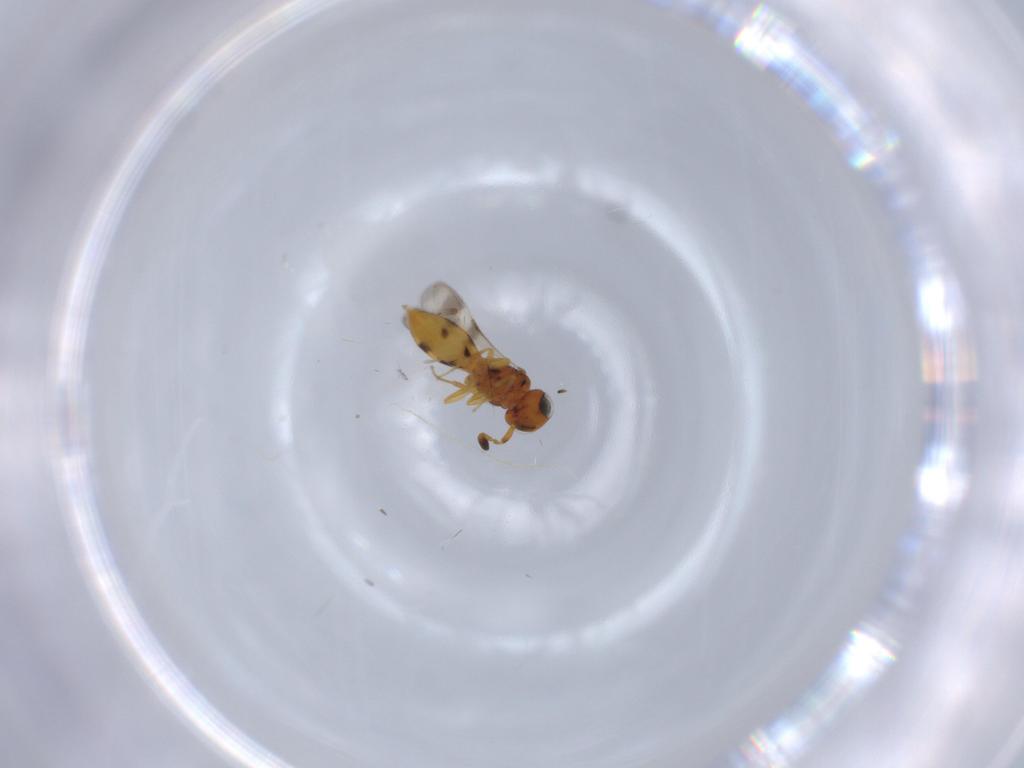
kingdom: Animalia
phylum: Arthropoda
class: Insecta
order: Hymenoptera
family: Scelionidae
